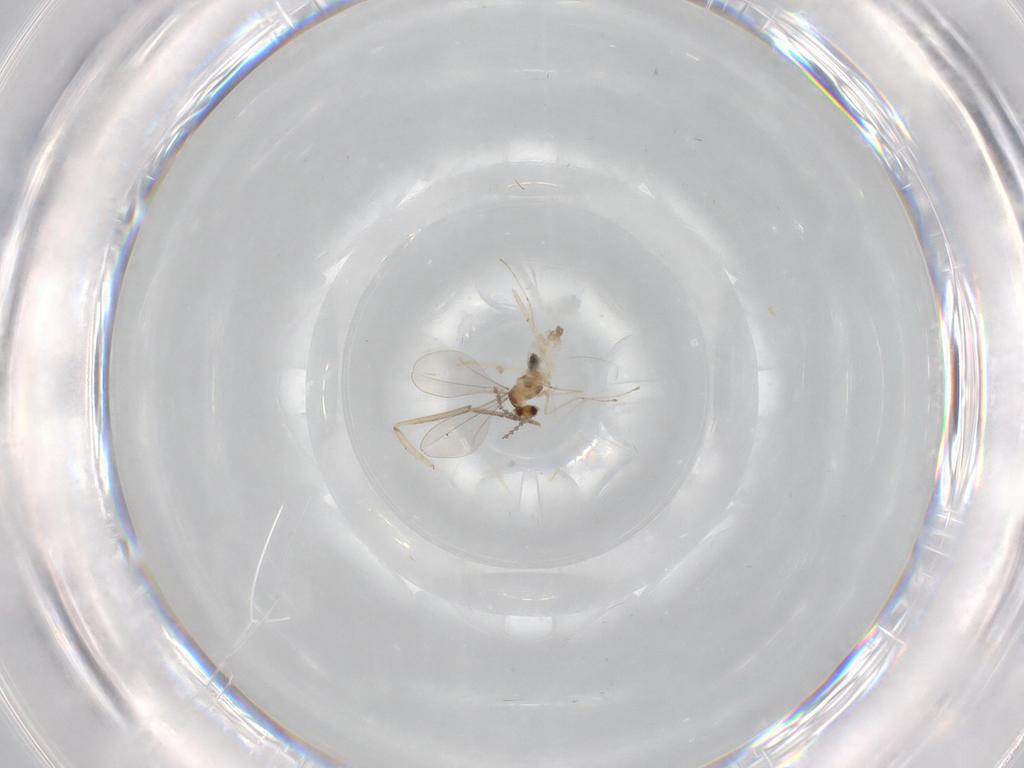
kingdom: Animalia
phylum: Arthropoda
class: Insecta
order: Diptera
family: Cecidomyiidae
